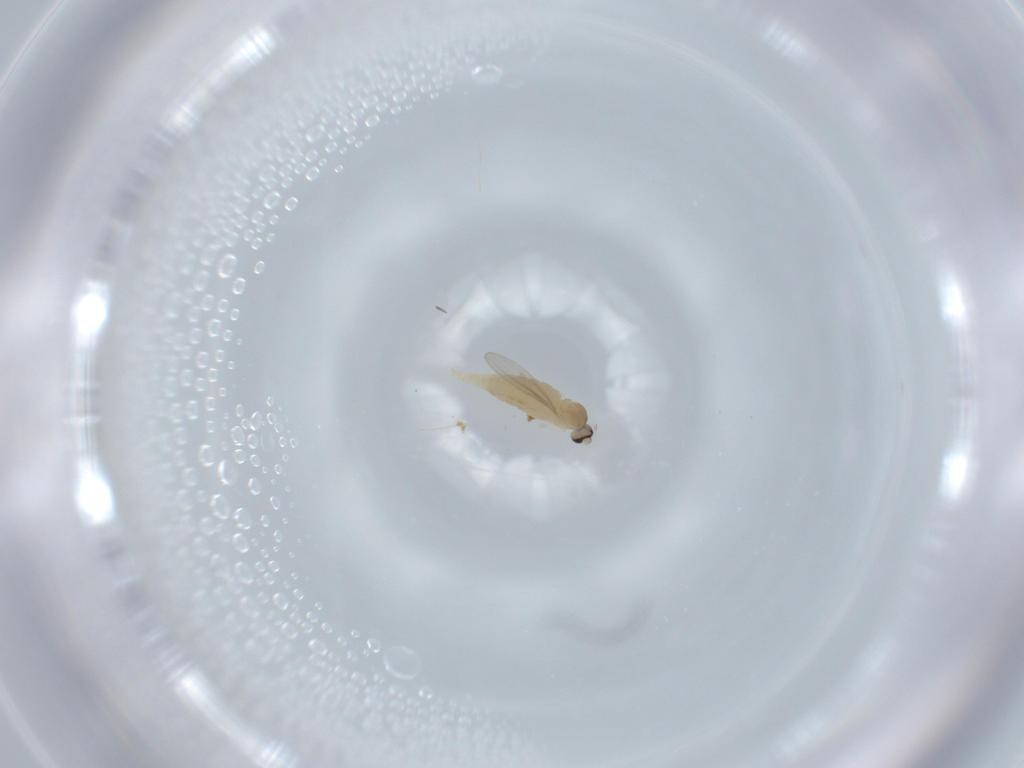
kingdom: Animalia
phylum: Arthropoda
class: Insecta
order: Diptera
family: Cecidomyiidae
